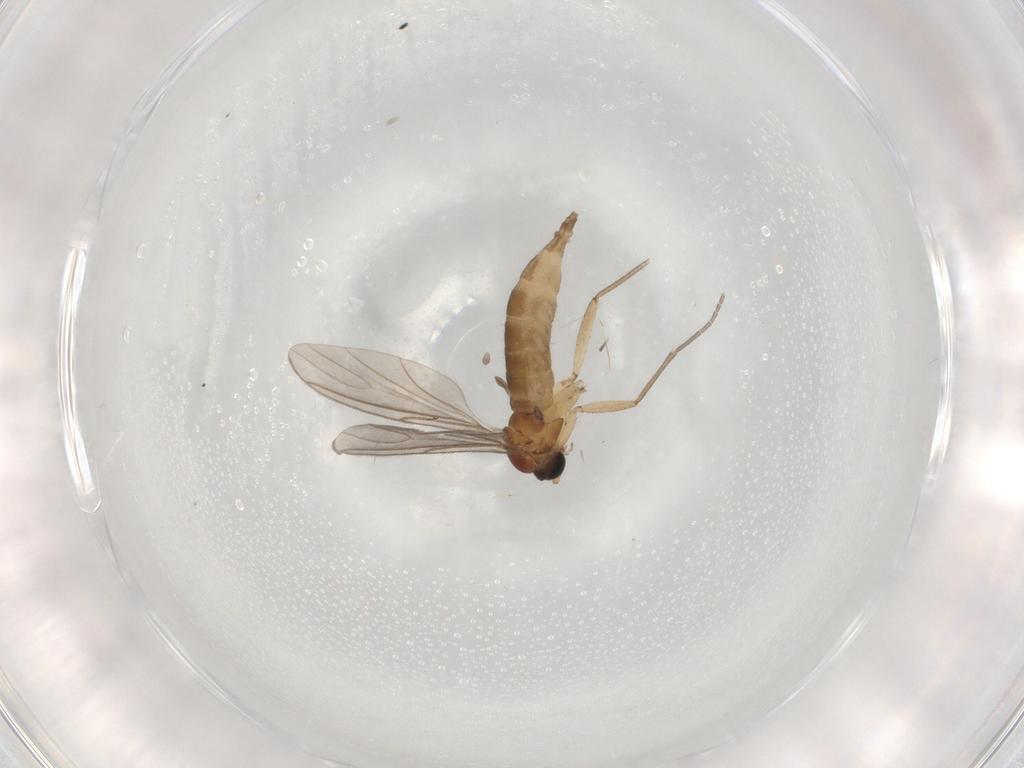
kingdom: Animalia
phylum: Arthropoda
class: Insecta
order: Diptera
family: Sciaridae
